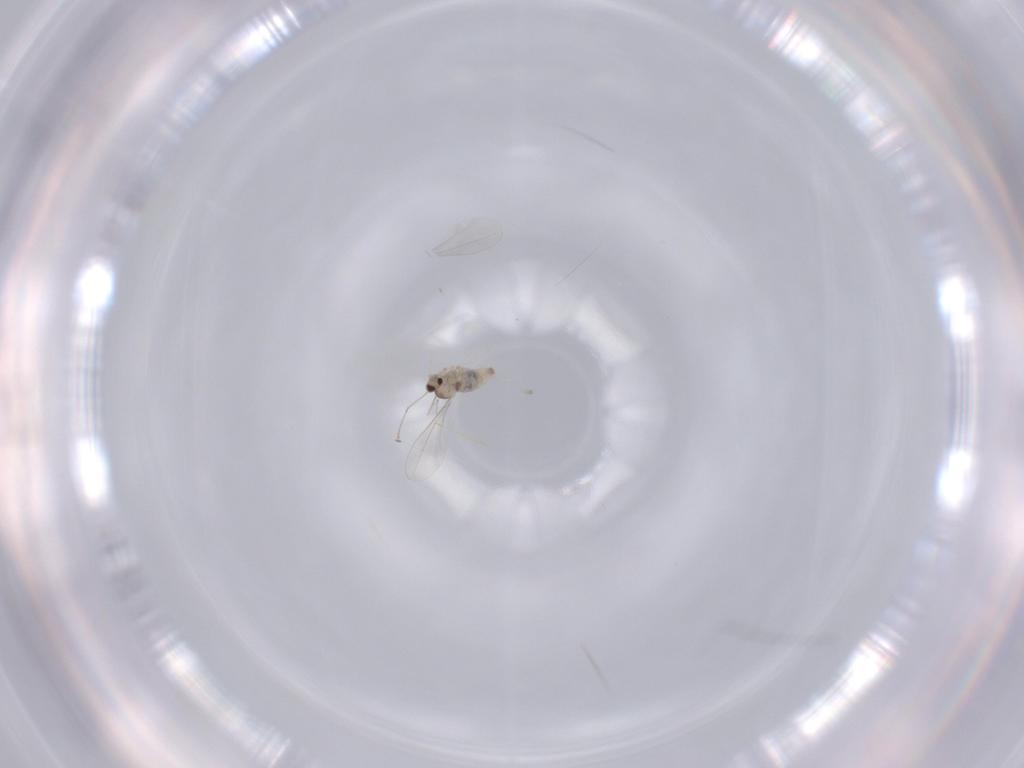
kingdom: Animalia
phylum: Arthropoda
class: Insecta
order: Diptera
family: Cecidomyiidae
